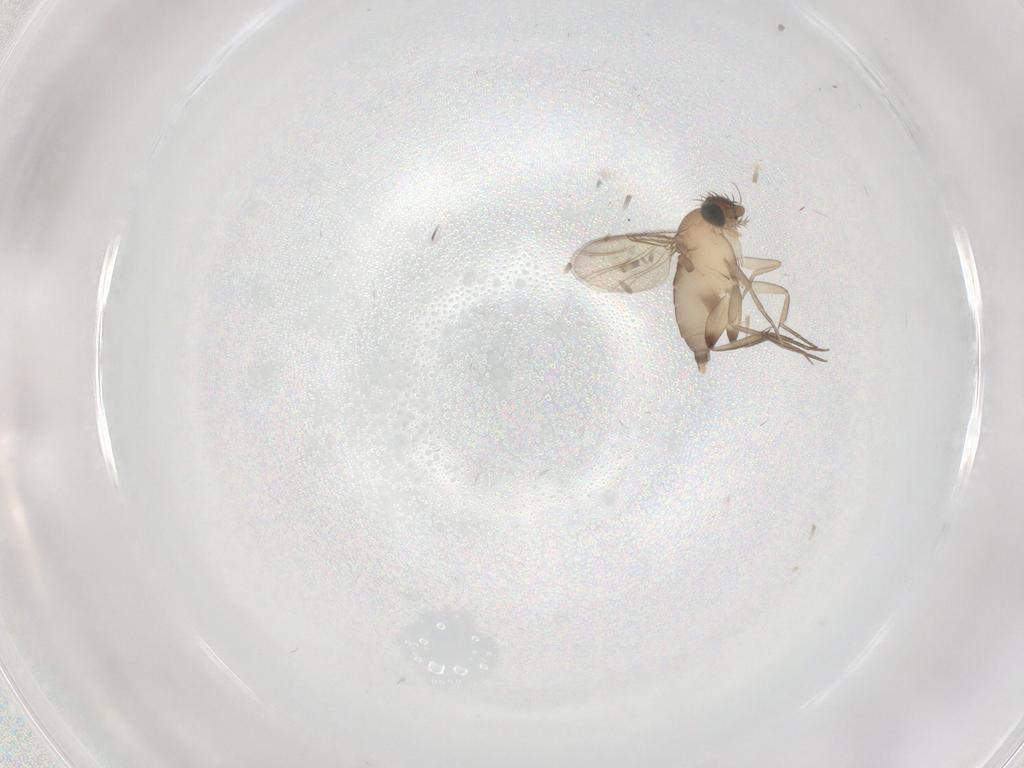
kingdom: Animalia
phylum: Arthropoda
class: Insecta
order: Diptera
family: Phoridae
